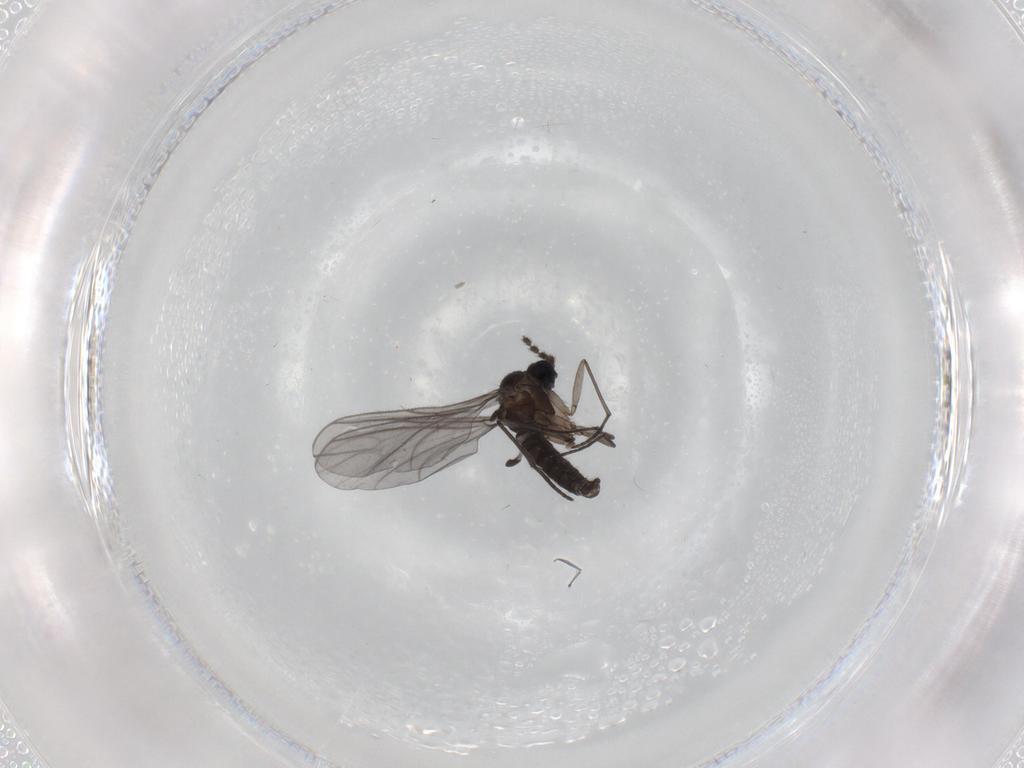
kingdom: Animalia
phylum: Arthropoda
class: Insecta
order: Diptera
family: Sciaridae
